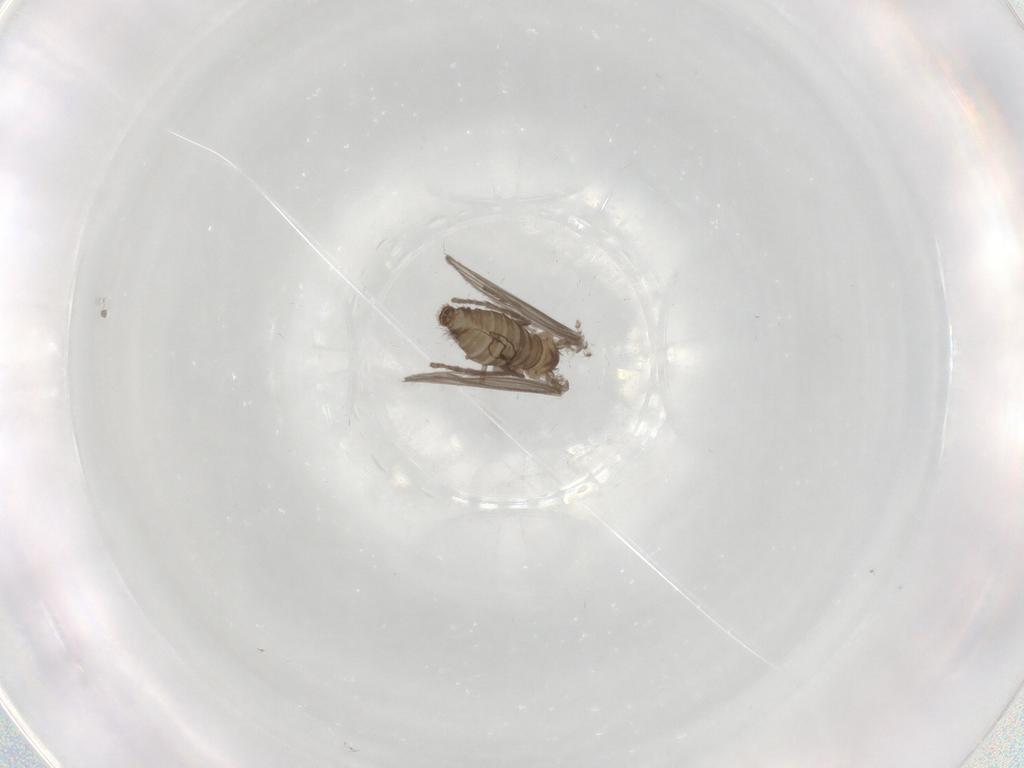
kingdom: Animalia
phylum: Arthropoda
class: Insecta
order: Diptera
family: Psychodidae
